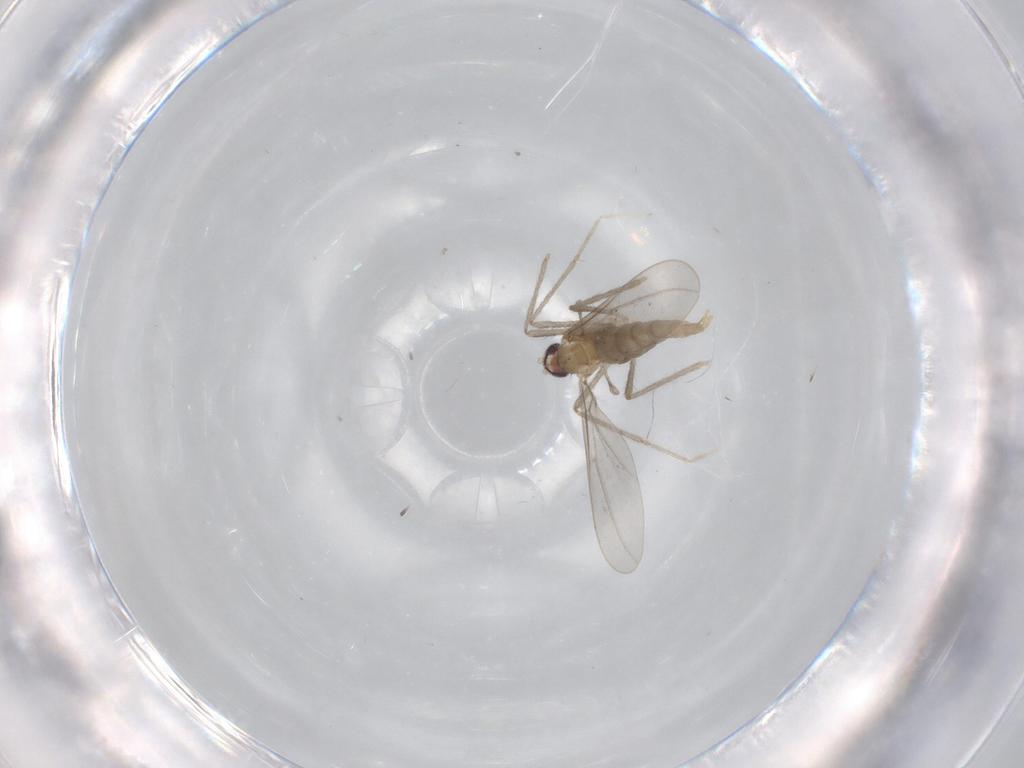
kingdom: Animalia
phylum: Arthropoda
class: Insecta
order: Diptera
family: Cecidomyiidae
